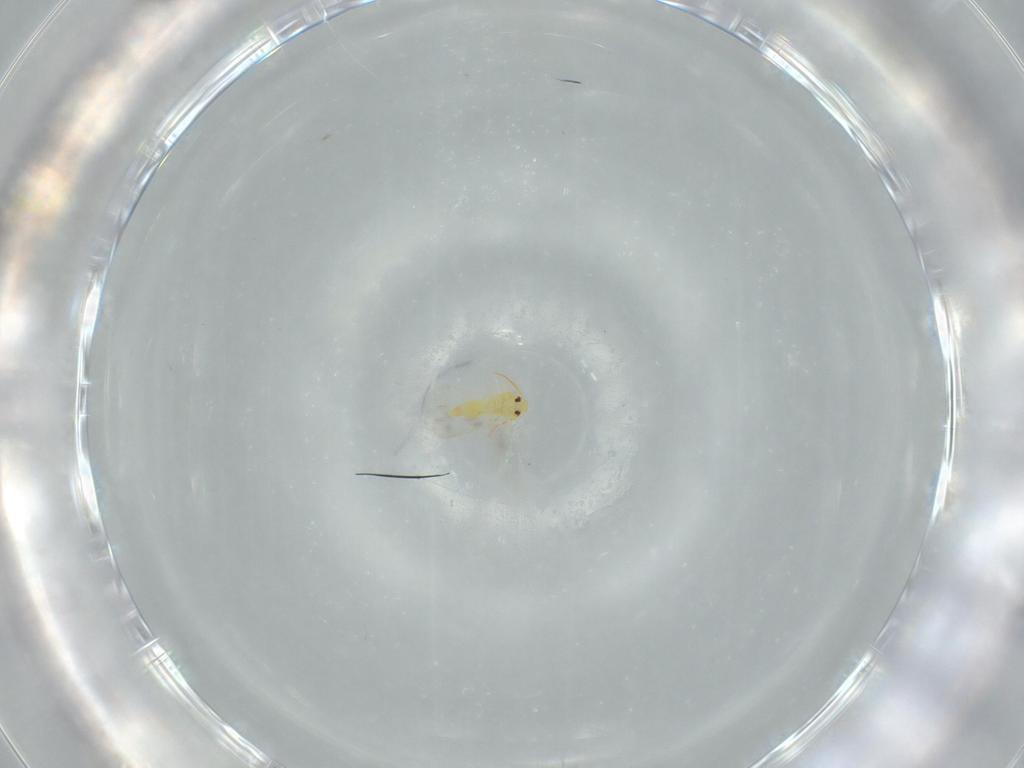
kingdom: Animalia
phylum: Arthropoda
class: Insecta
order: Hemiptera
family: Aleyrodidae
